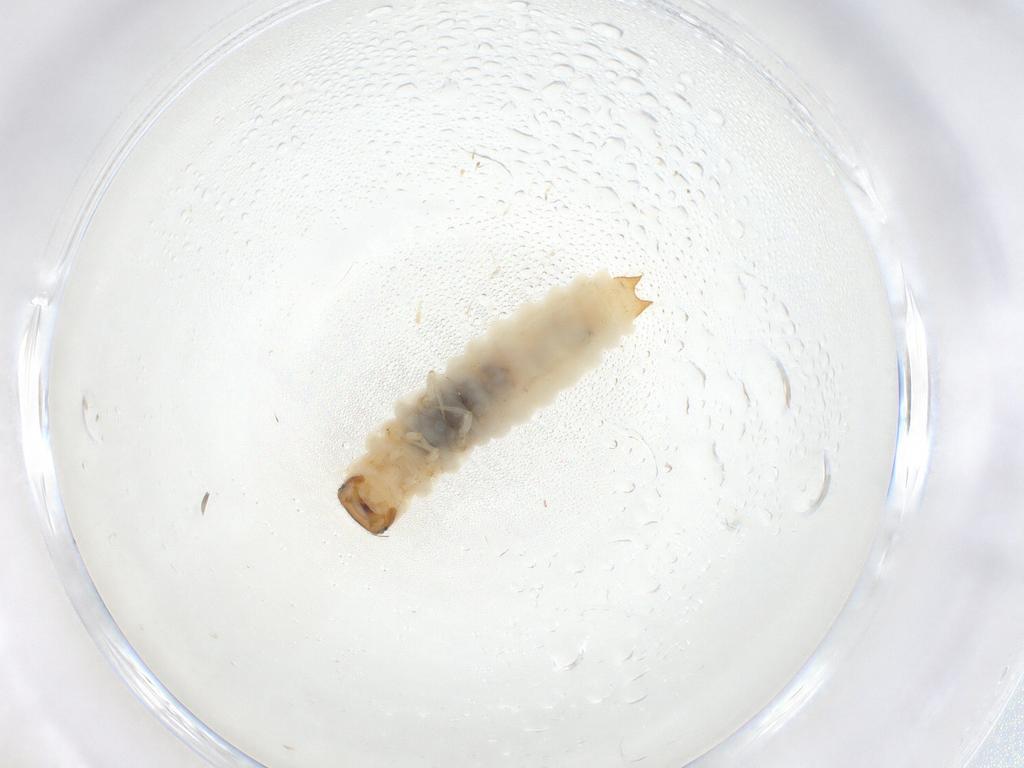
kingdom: Animalia
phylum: Arthropoda
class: Insecta
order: Coleoptera
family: Melyridae
